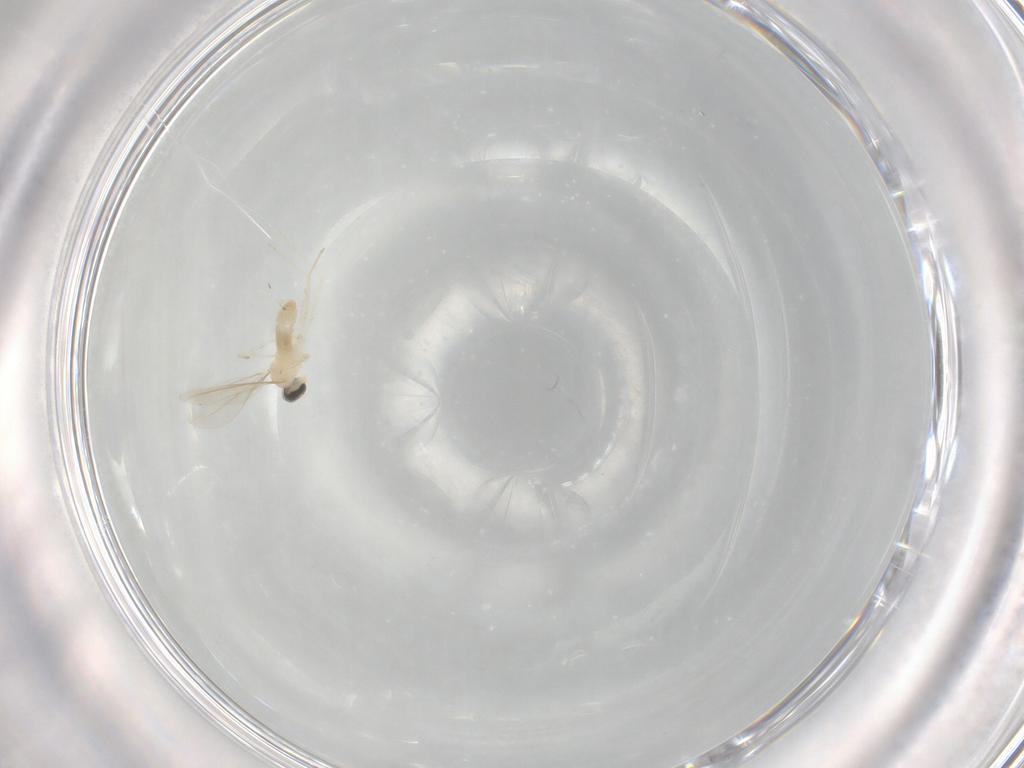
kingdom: Animalia
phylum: Arthropoda
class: Insecta
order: Diptera
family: Cecidomyiidae
